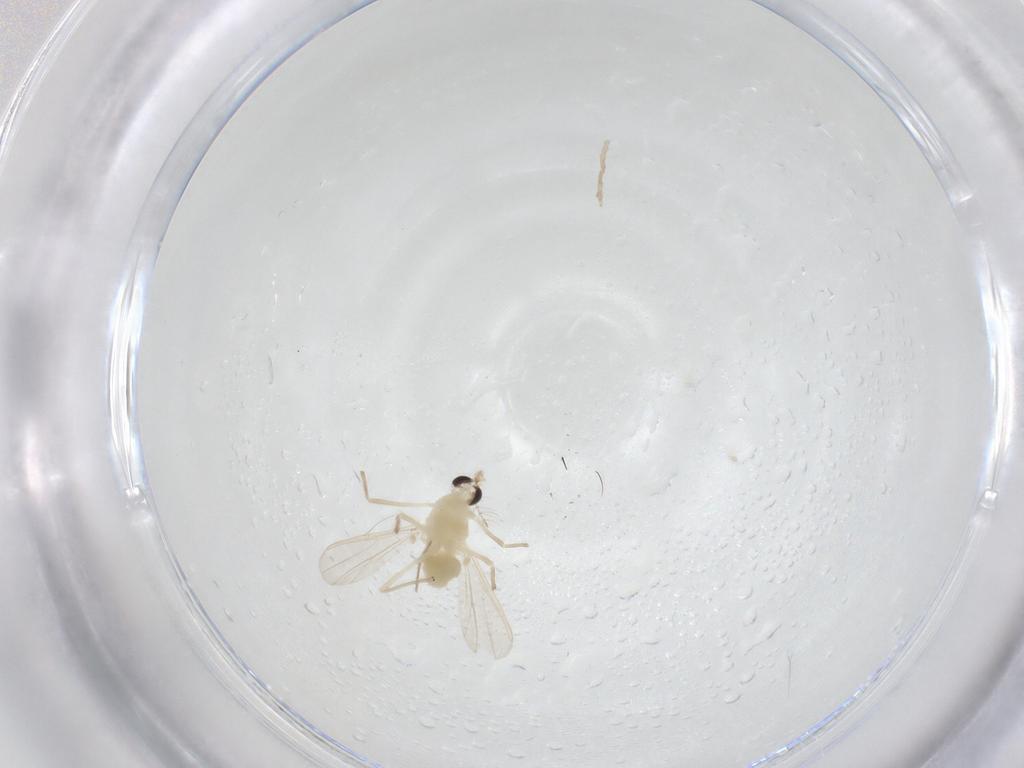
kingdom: Animalia
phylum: Arthropoda
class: Insecta
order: Diptera
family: Chironomidae
